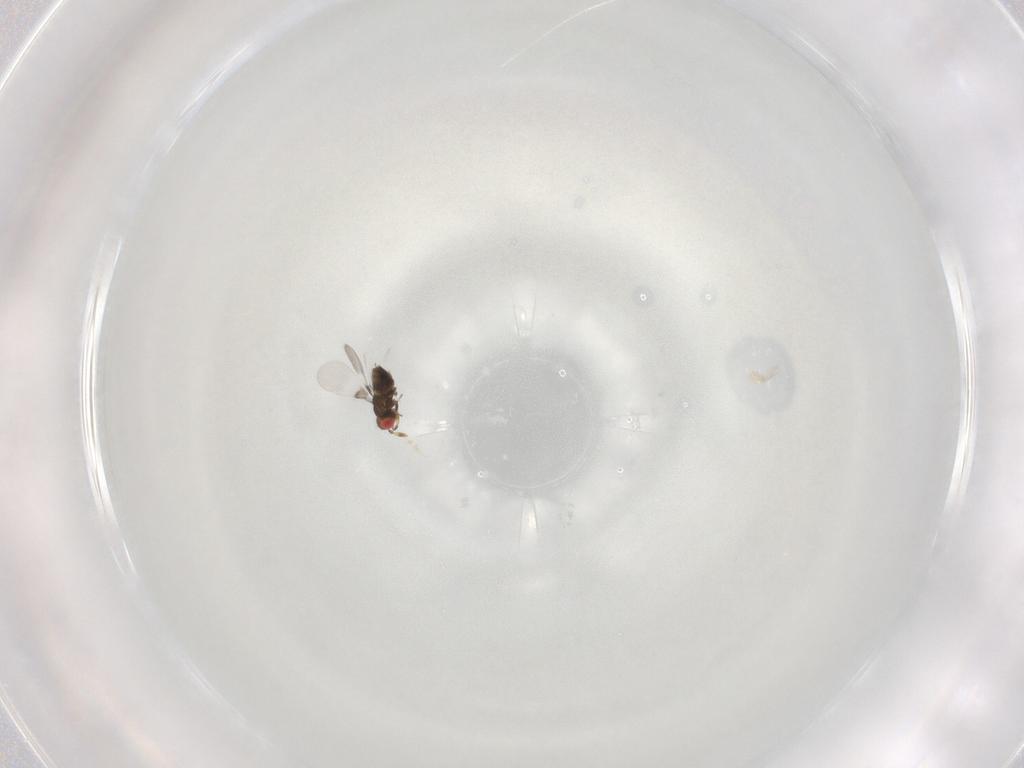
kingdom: Animalia
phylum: Arthropoda
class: Insecta
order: Hymenoptera
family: Trichogrammatidae
